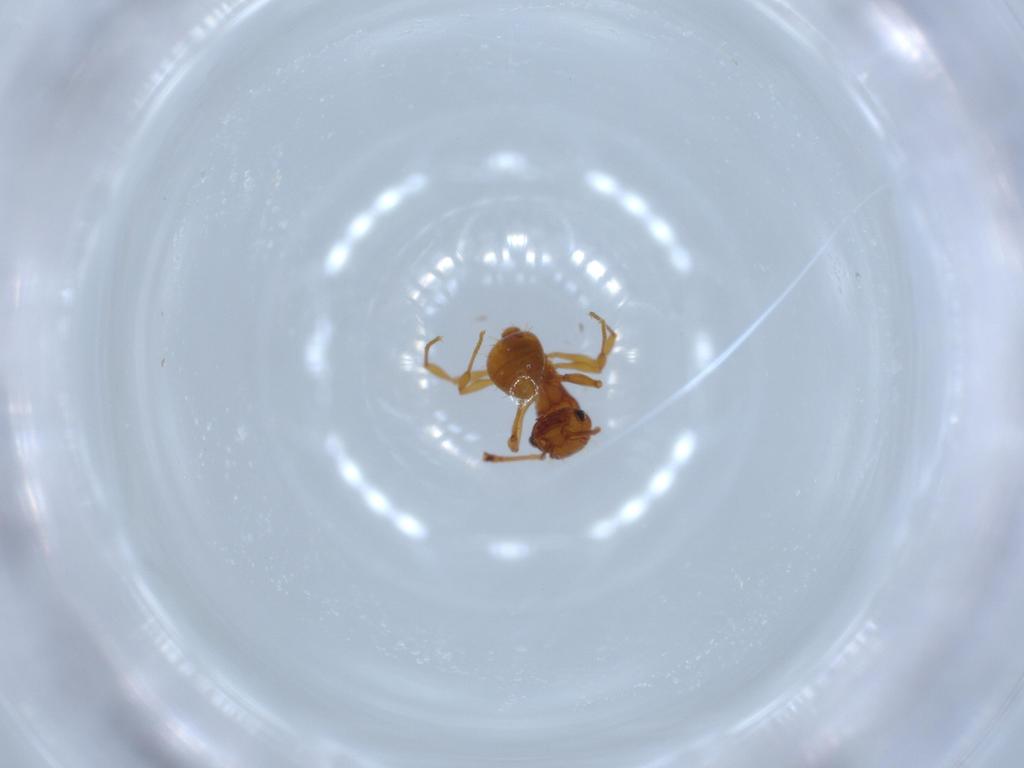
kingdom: Animalia
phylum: Arthropoda
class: Insecta
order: Hymenoptera
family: Formicidae
